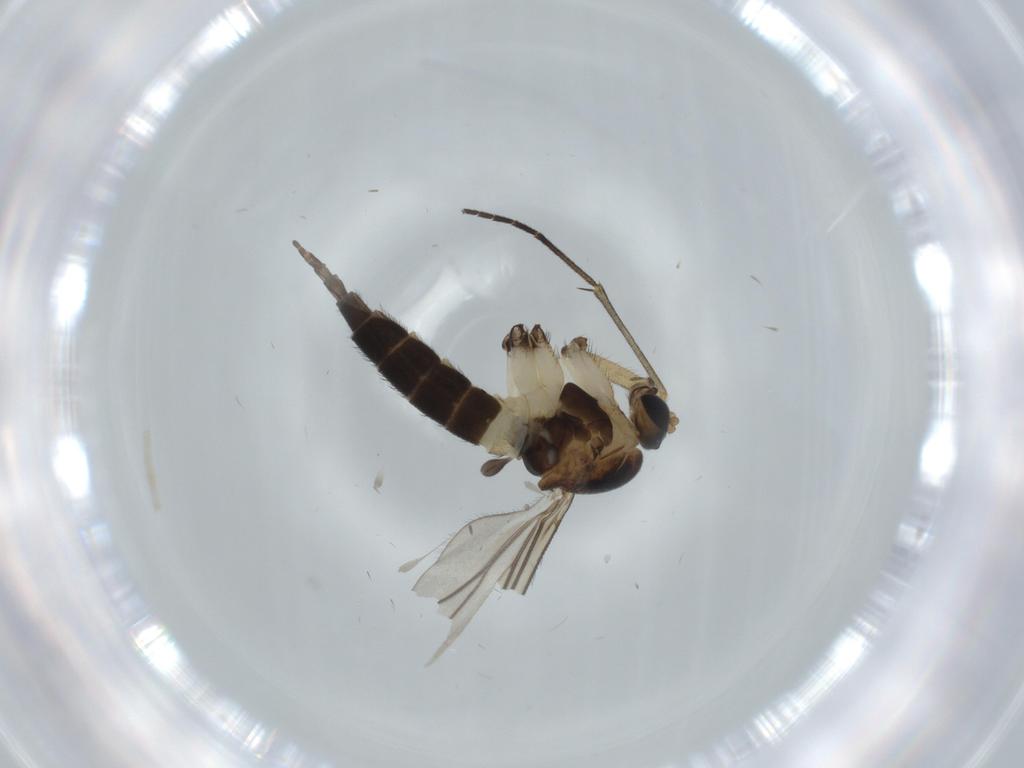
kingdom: Animalia
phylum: Arthropoda
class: Insecta
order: Diptera
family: Sciaridae
